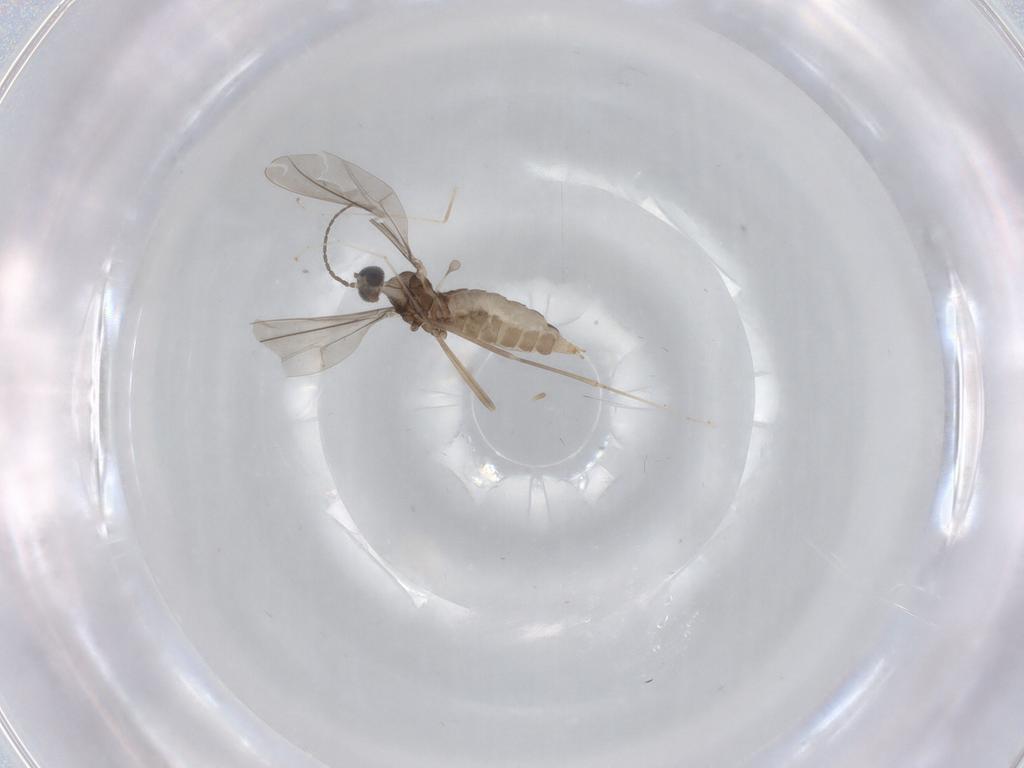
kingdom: Animalia
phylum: Arthropoda
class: Insecta
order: Diptera
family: Cecidomyiidae
